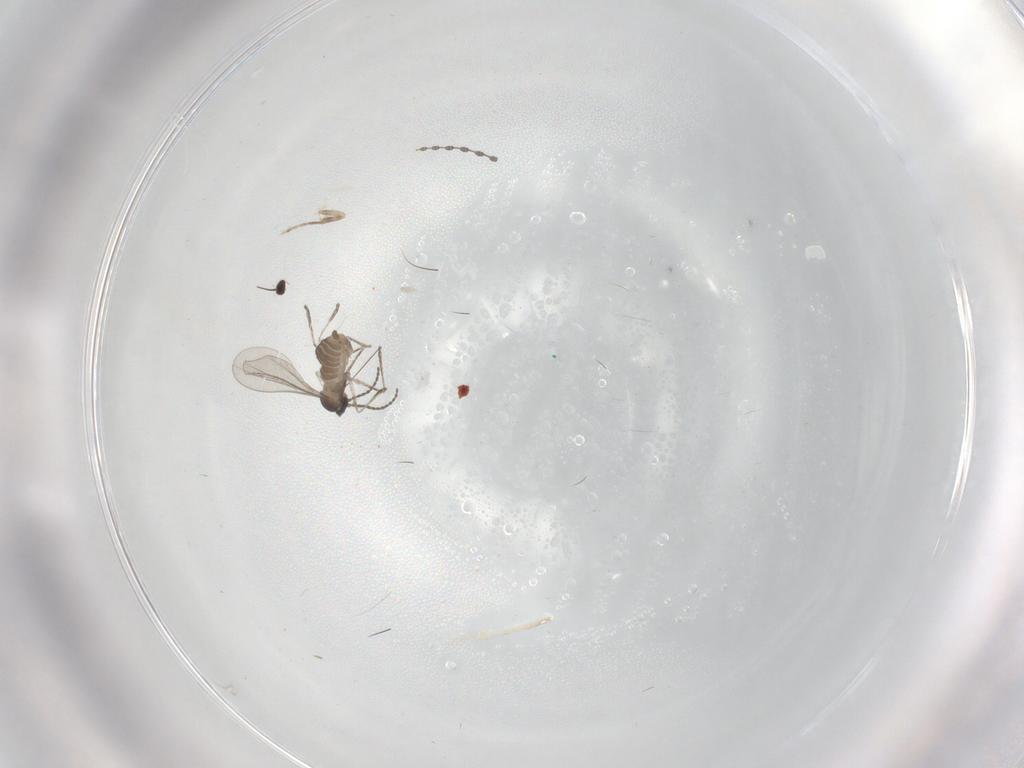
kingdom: Animalia
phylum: Arthropoda
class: Insecta
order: Diptera
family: Cecidomyiidae
